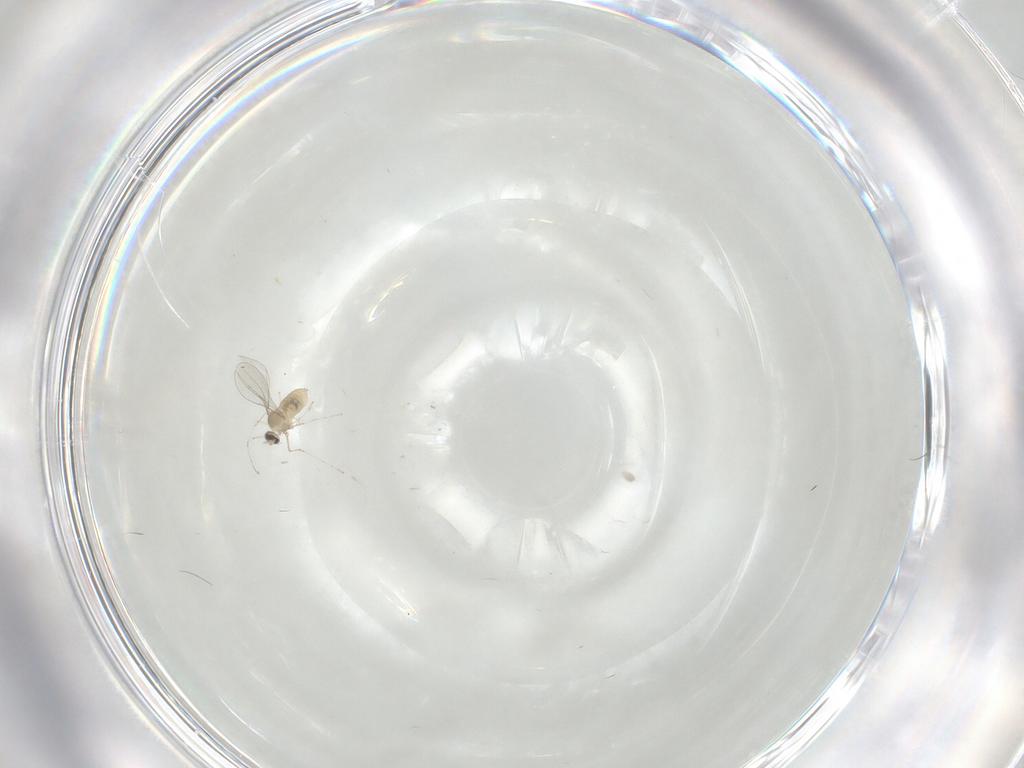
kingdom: Animalia
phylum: Arthropoda
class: Insecta
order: Diptera
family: Cecidomyiidae
